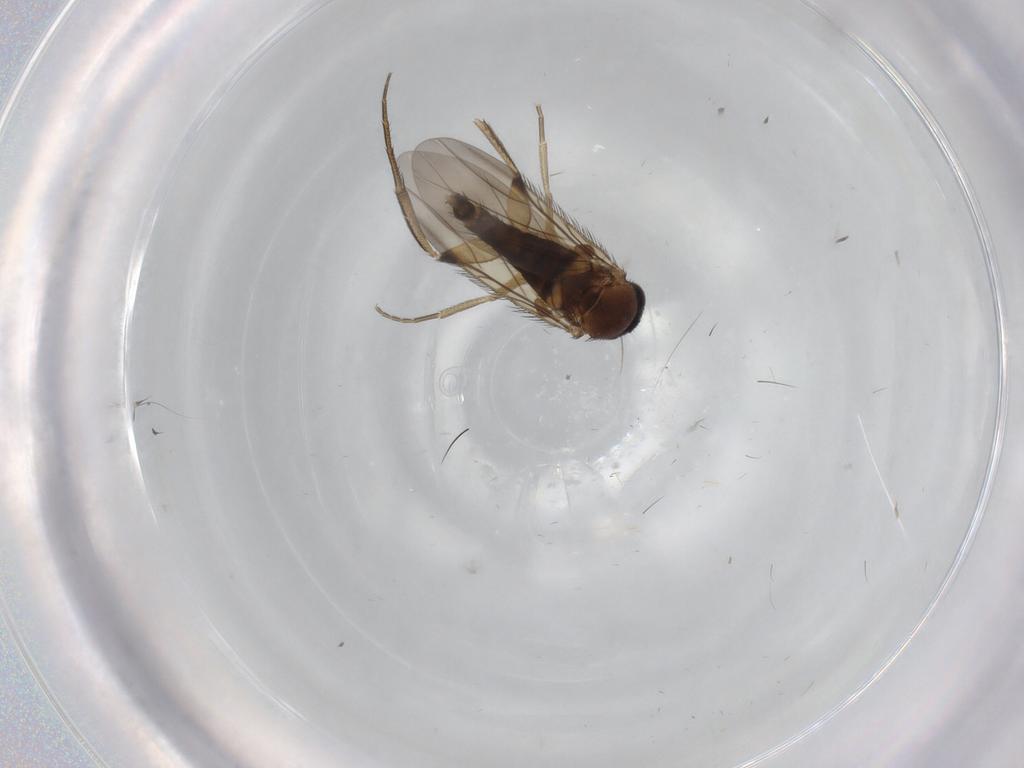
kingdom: Animalia
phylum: Arthropoda
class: Insecta
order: Diptera
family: Phoridae
